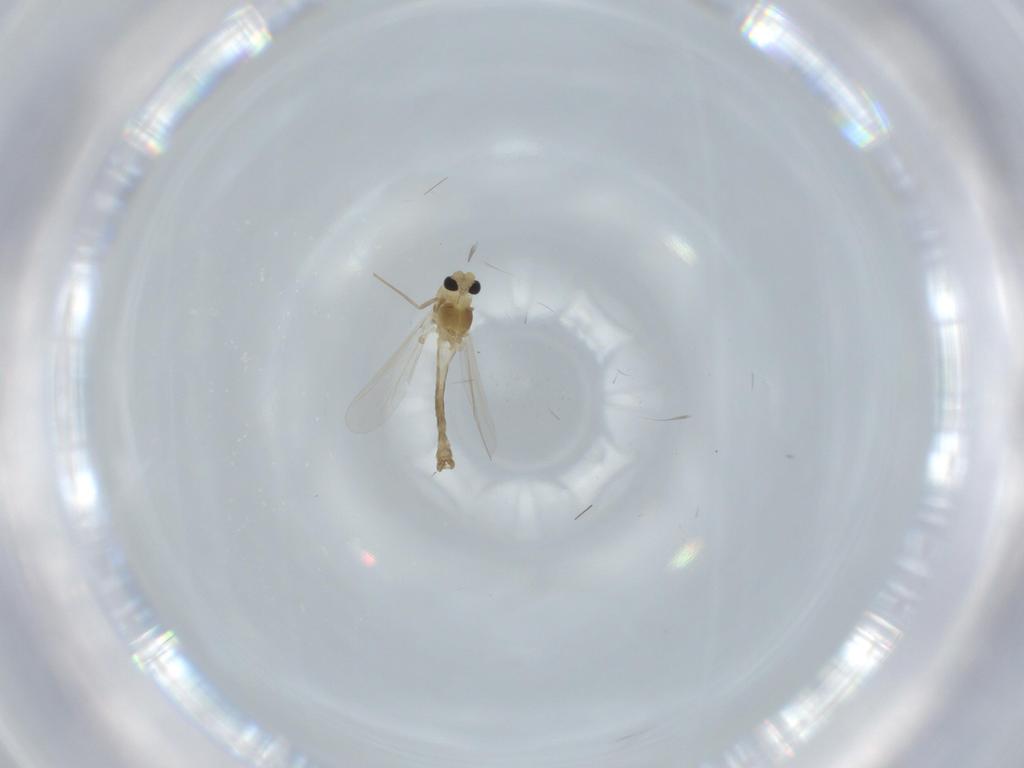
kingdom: Animalia
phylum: Arthropoda
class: Insecta
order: Diptera
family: Chironomidae
